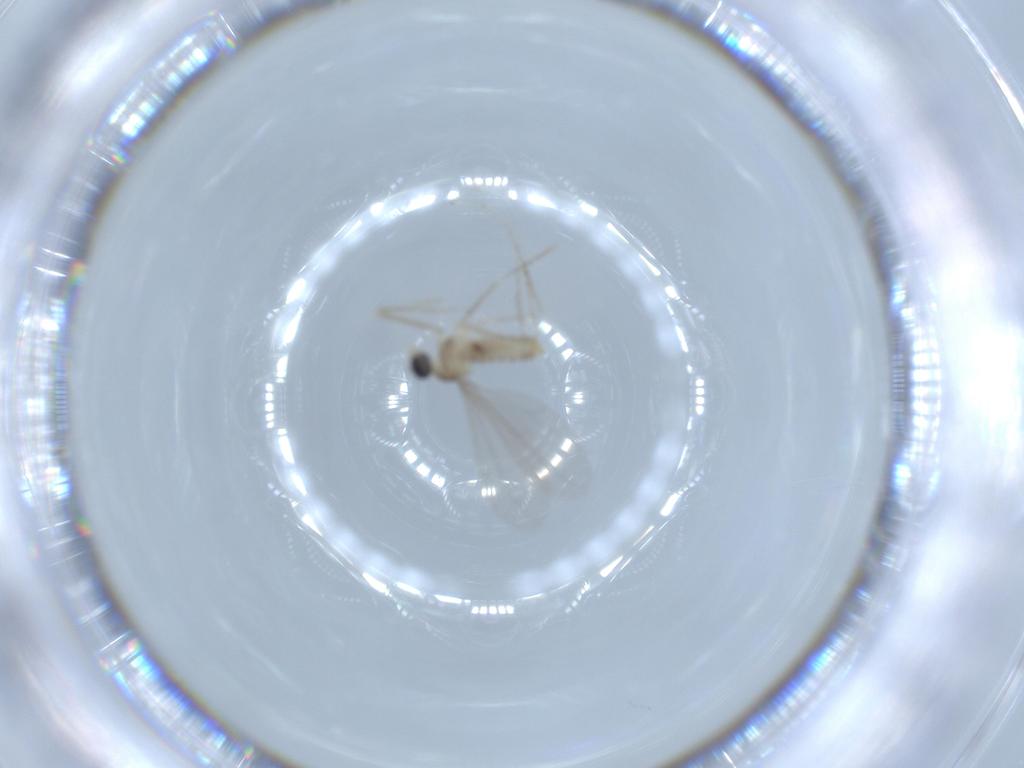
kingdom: Animalia
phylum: Arthropoda
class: Insecta
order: Diptera
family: Cecidomyiidae
